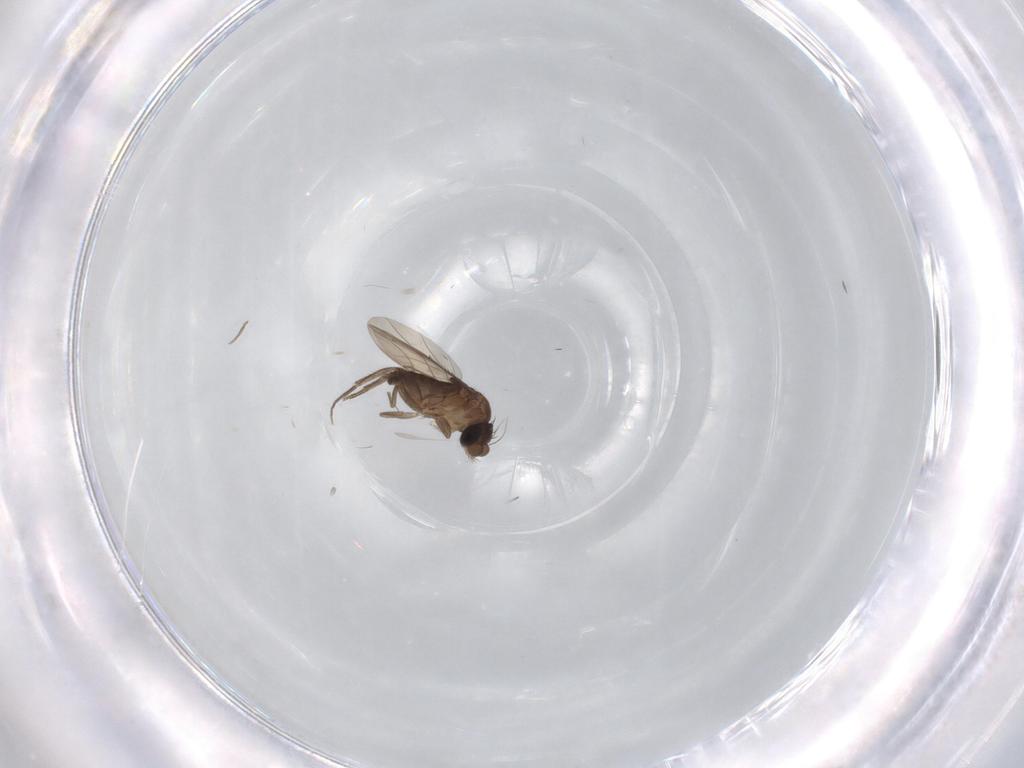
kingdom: Animalia
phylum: Arthropoda
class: Insecta
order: Diptera
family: Phoridae
